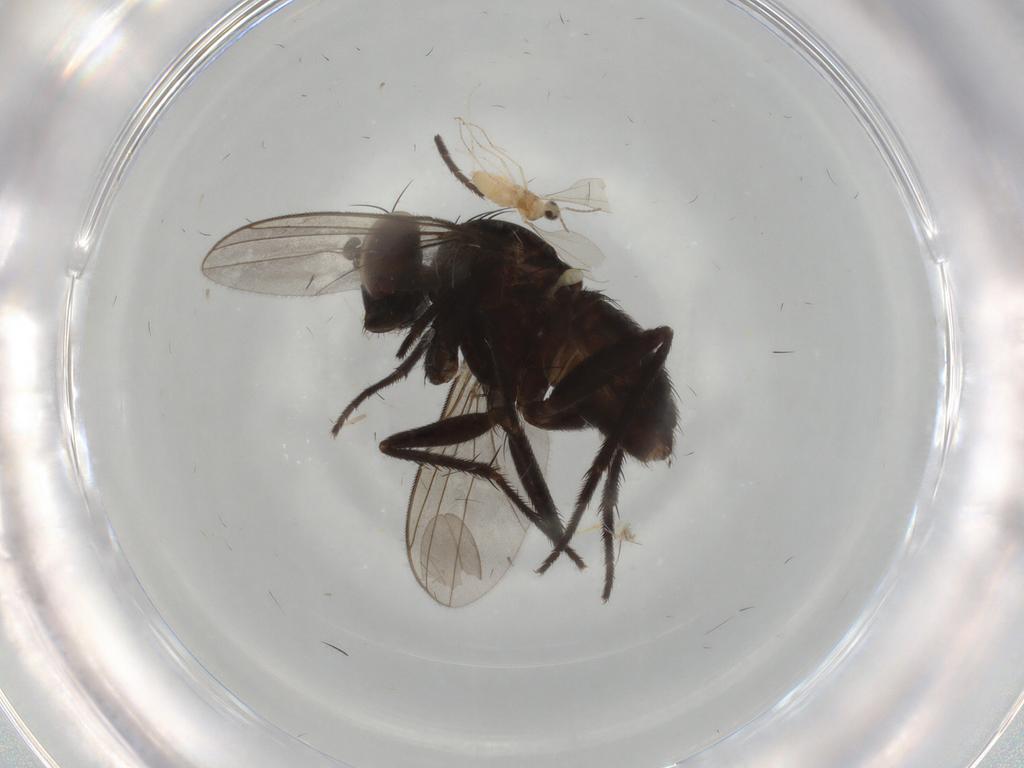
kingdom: Animalia
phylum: Arthropoda
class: Insecta
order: Diptera
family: Dolichopodidae
